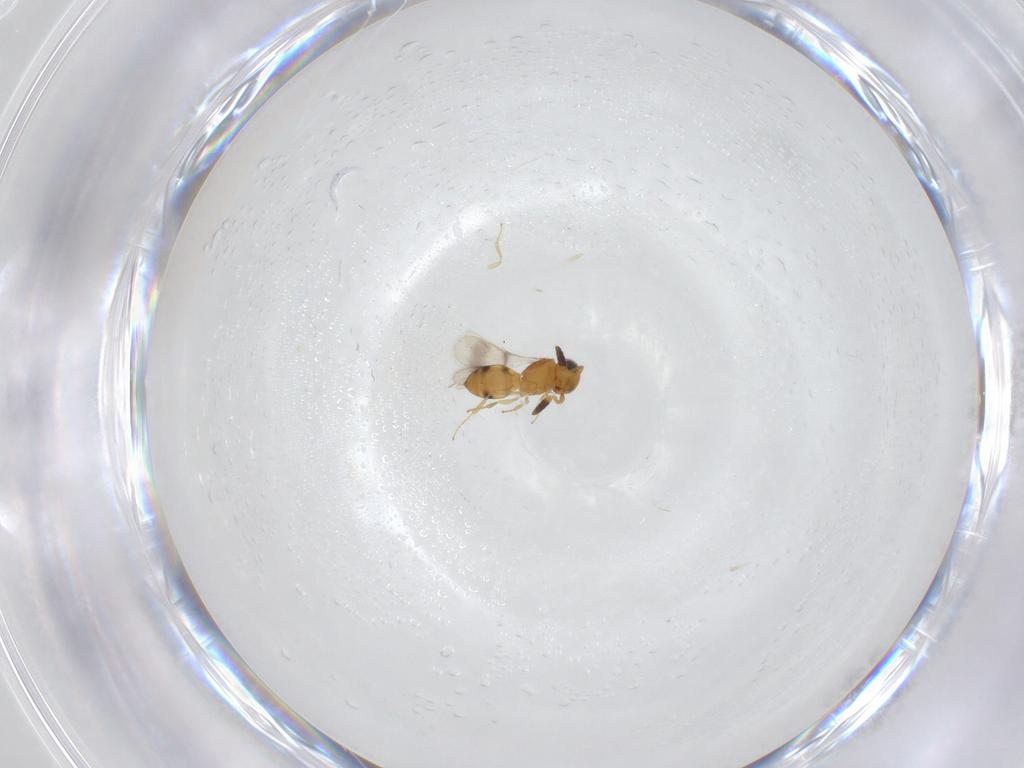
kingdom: Animalia
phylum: Arthropoda
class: Insecta
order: Hymenoptera
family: Scelionidae
